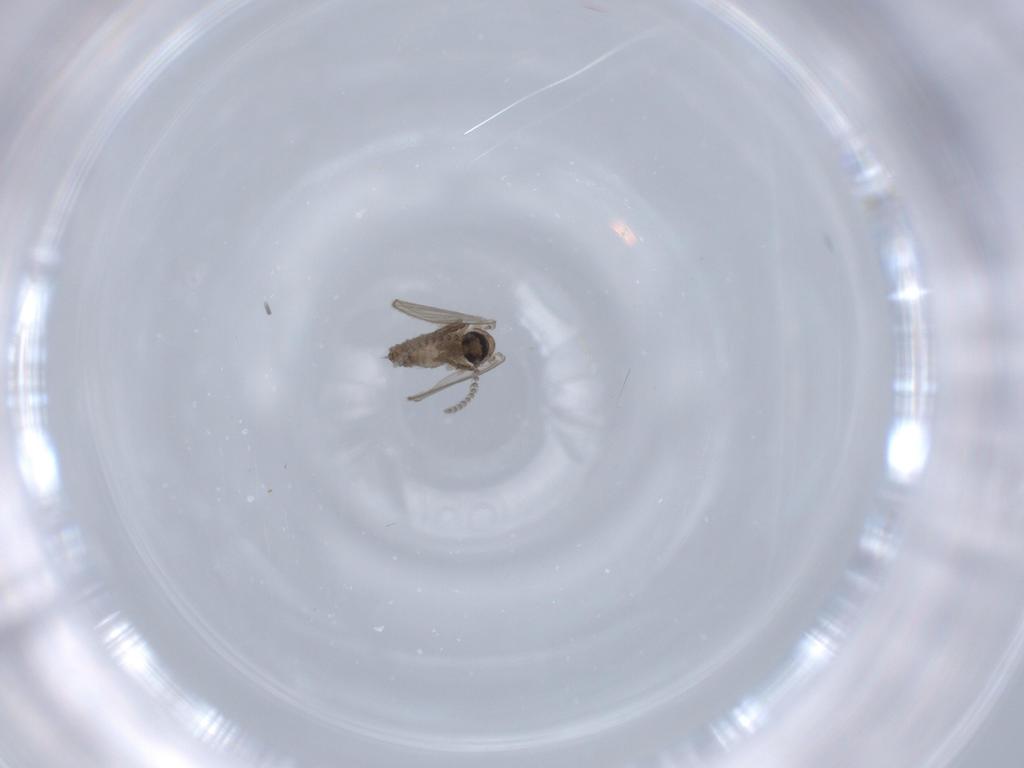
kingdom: Animalia
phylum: Arthropoda
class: Insecta
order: Diptera
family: Psychodidae
